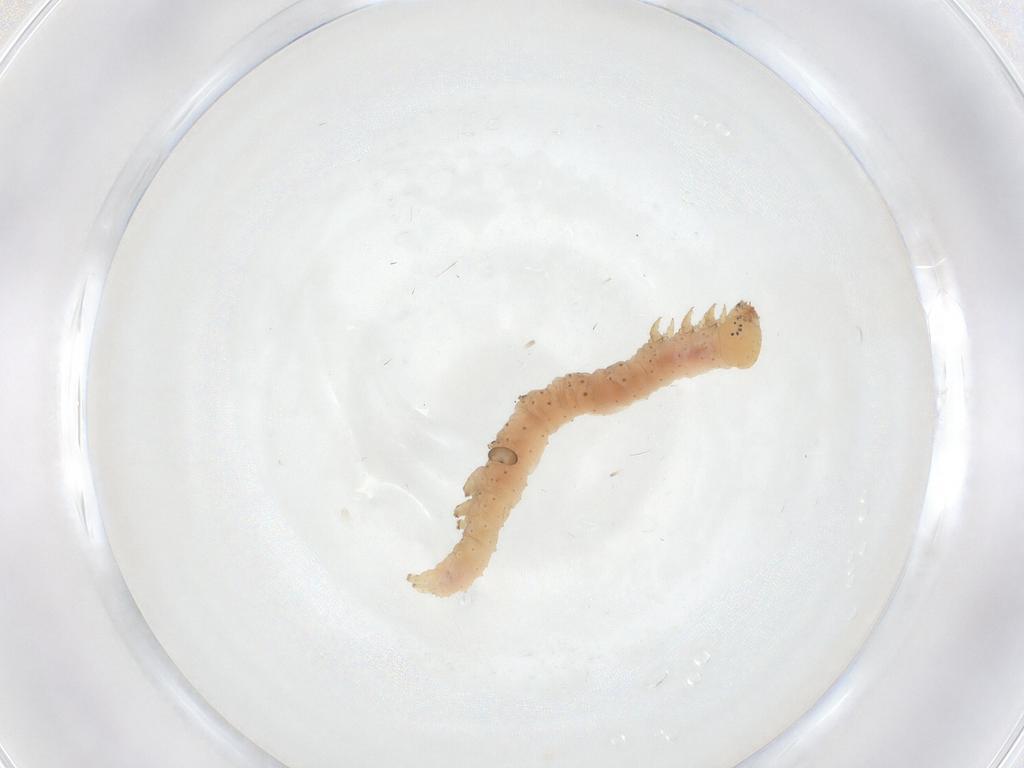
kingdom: Animalia
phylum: Arthropoda
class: Insecta
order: Lepidoptera
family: Erebidae
